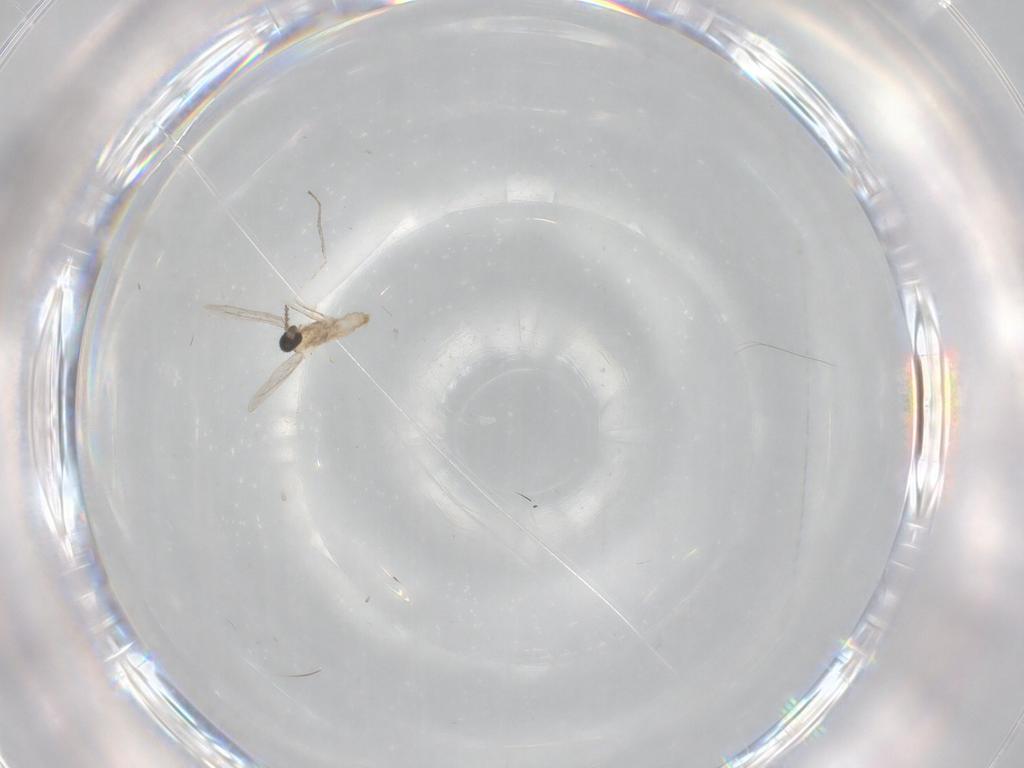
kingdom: Animalia
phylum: Arthropoda
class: Insecta
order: Diptera
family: Cecidomyiidae
